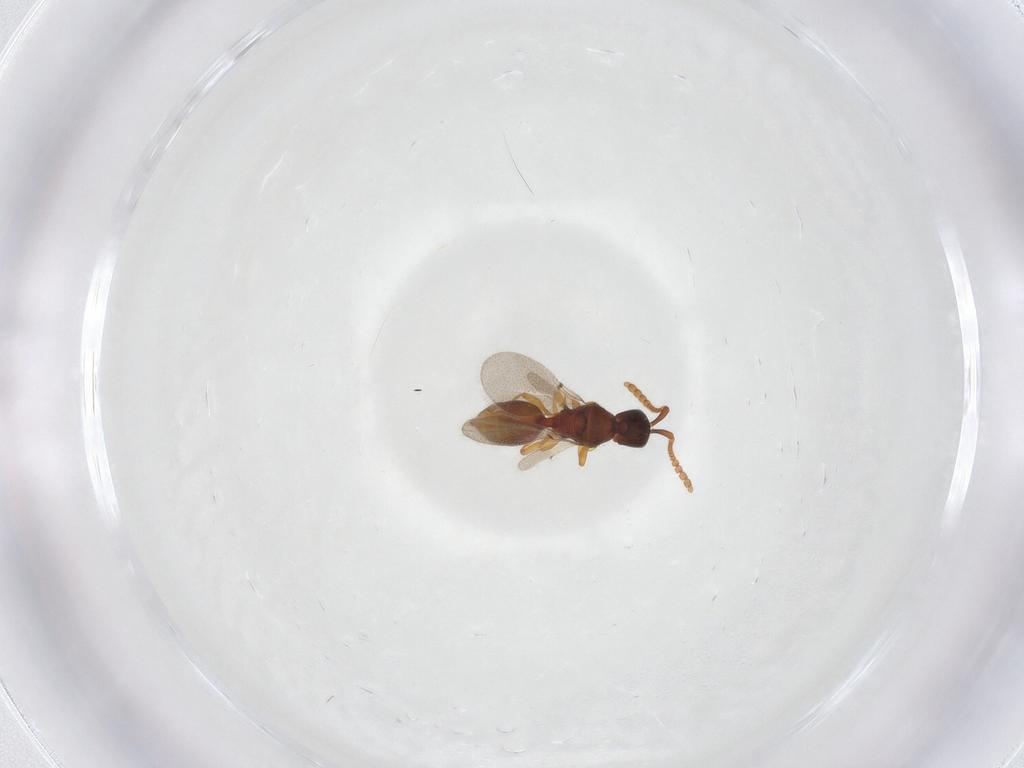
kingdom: Animalia
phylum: Arthropoda
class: Insecta
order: Hymenoptera
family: Diapriidae
